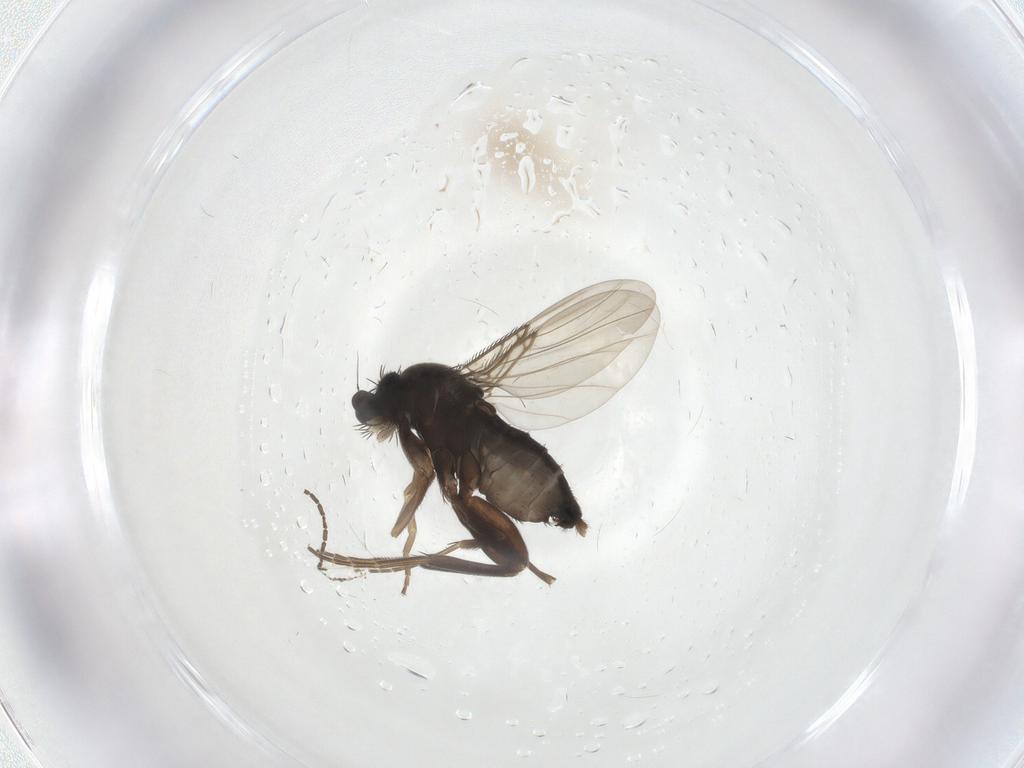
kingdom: Animalia
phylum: Arthropoda
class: Insecta
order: Diptera
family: Phoridae
